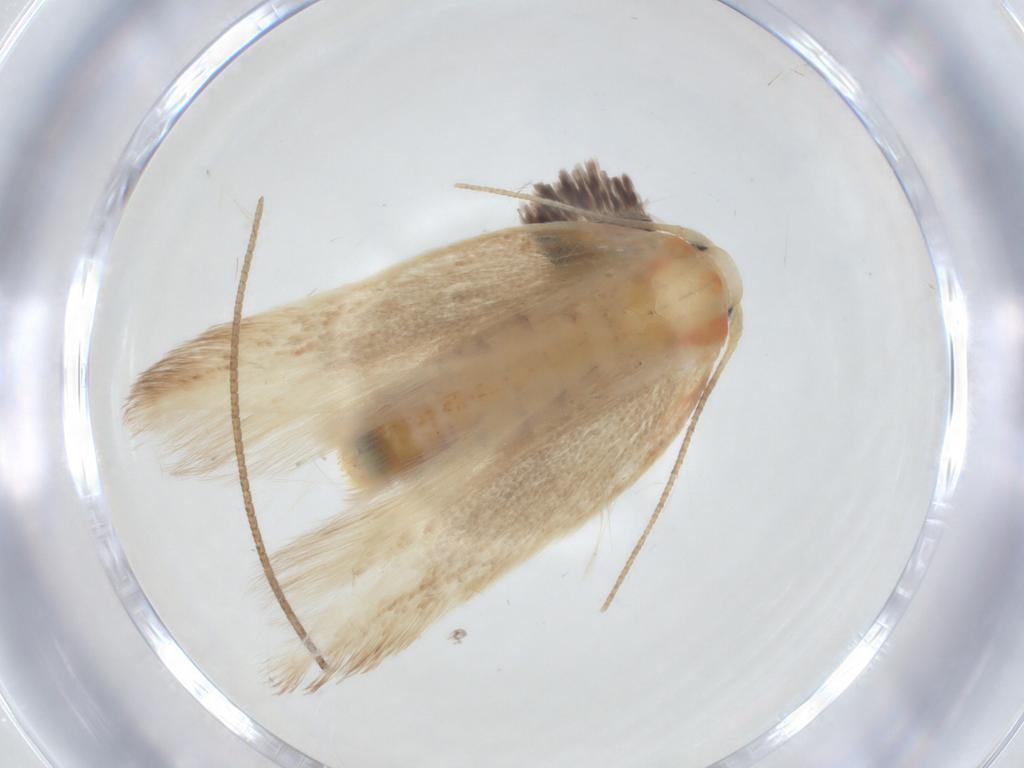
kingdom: Animalia
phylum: Arthropoda
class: Insecta
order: Lepidoptera
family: Geometridae
